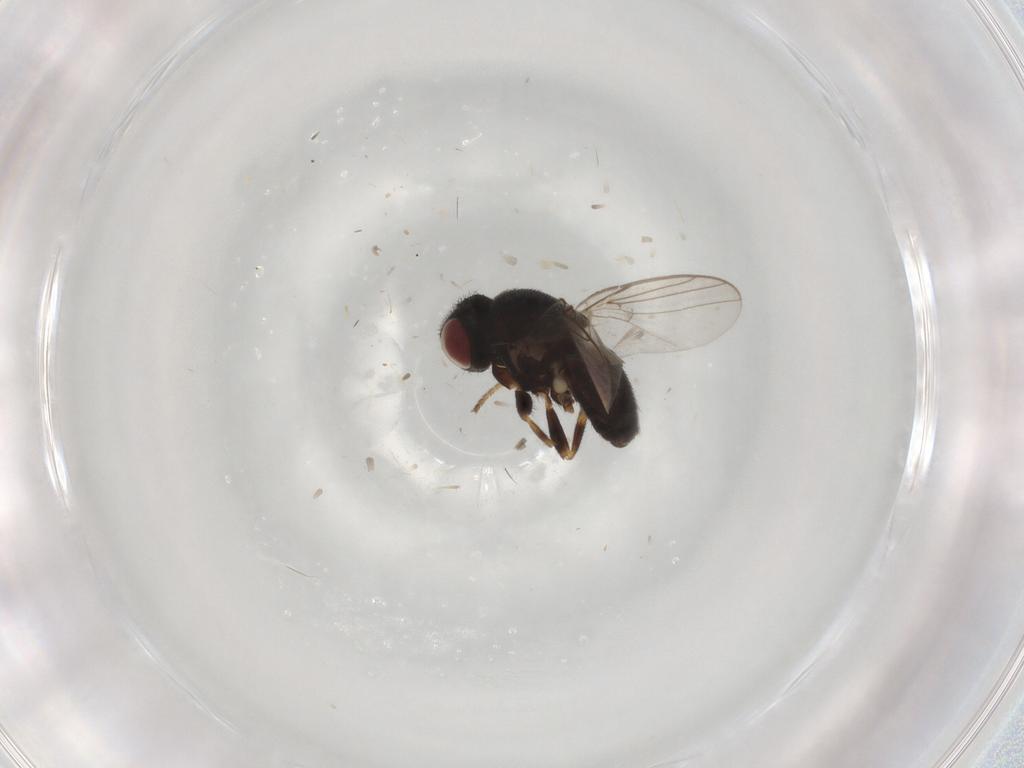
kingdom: Animalia
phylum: Arthropoda
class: Insecta
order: Diptera
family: Chloropidae
